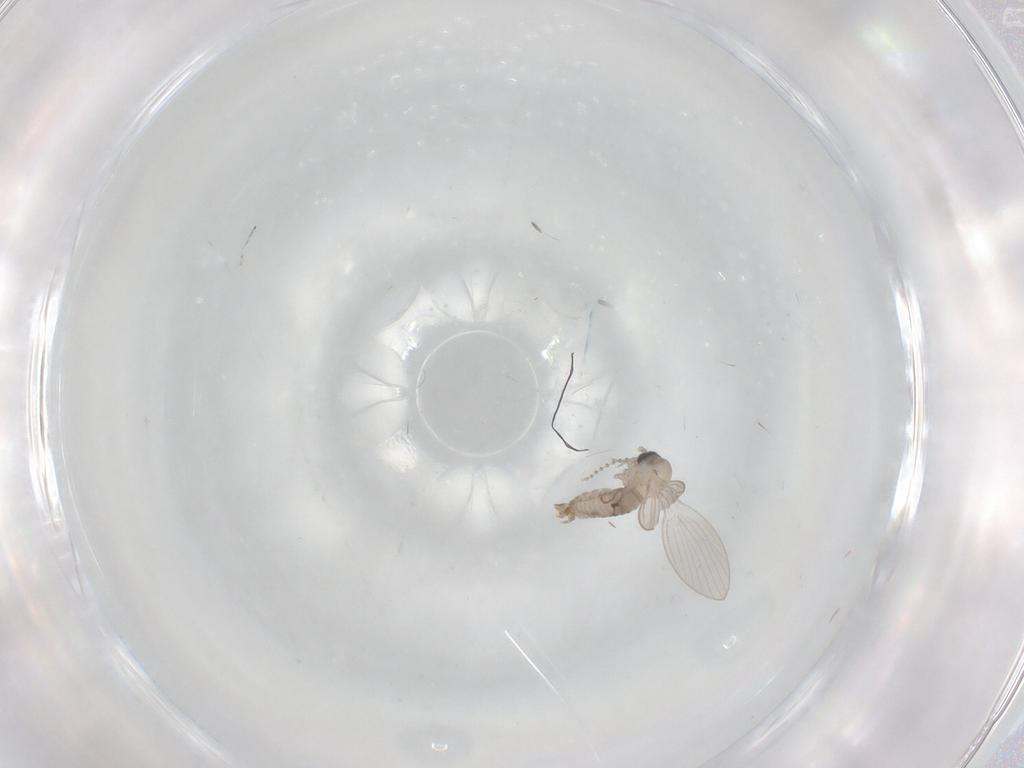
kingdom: Animalia
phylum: Arthropoda
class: Insecta
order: Diptera
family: Psychodidae
